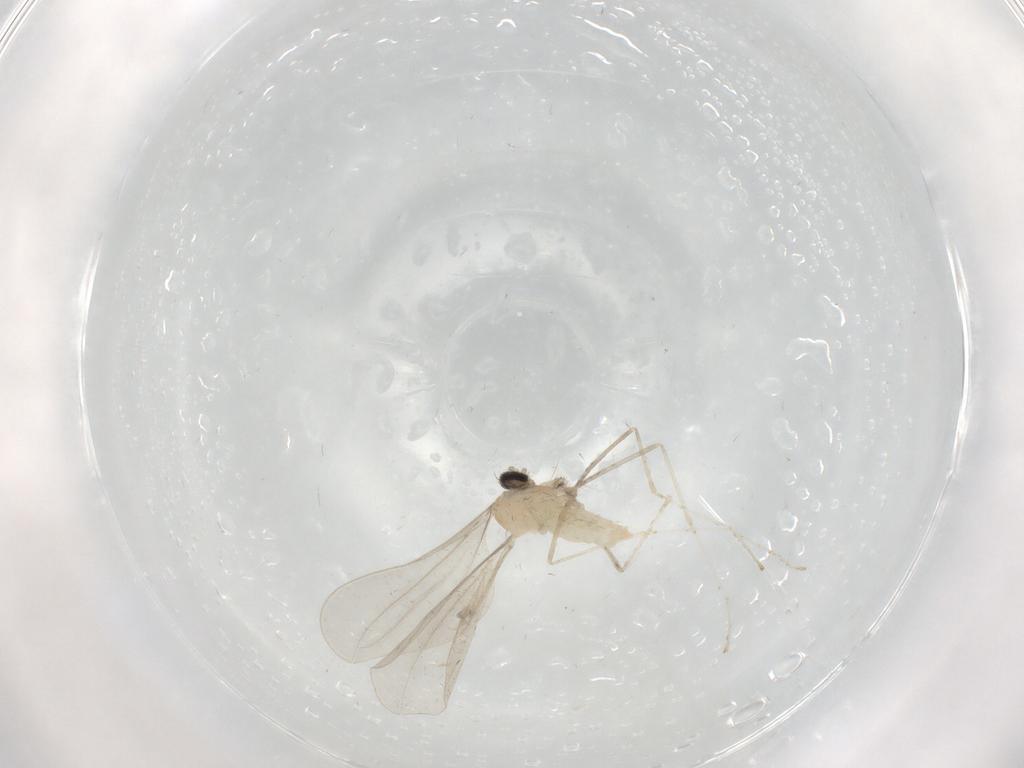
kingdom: Animalia
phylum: Arthropoda
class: Insecta
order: Diptera
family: Cecidomyiidae
